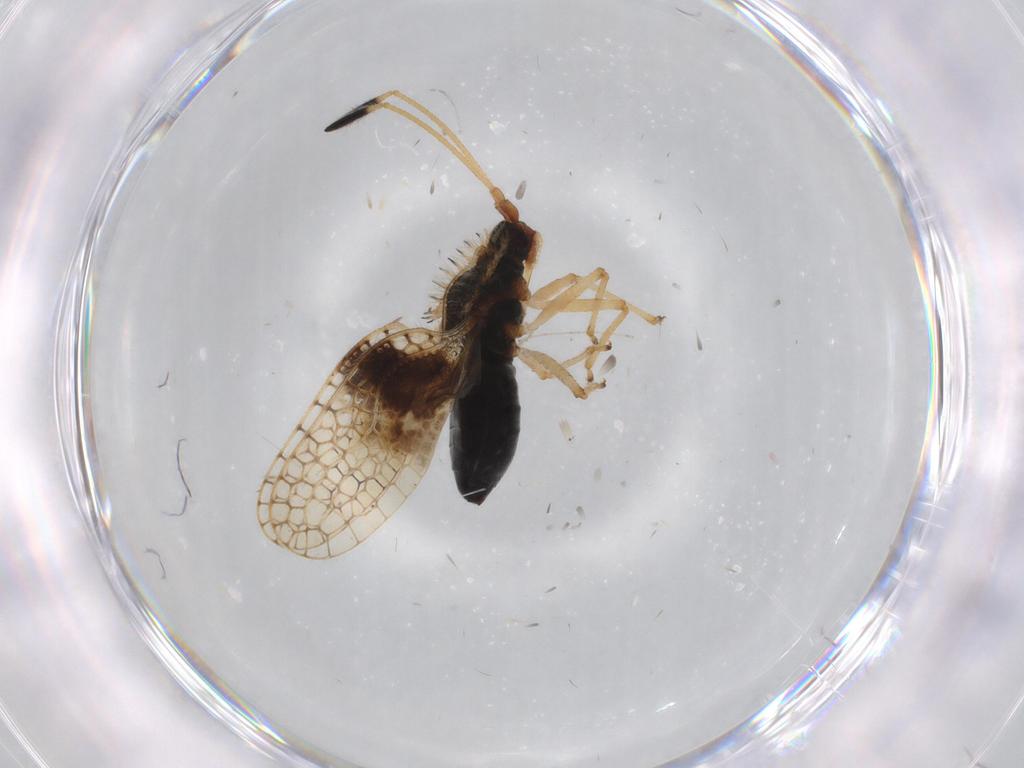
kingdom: Animalia
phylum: Arthropoda
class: Insecta
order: Hemiptera
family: Tingidae
